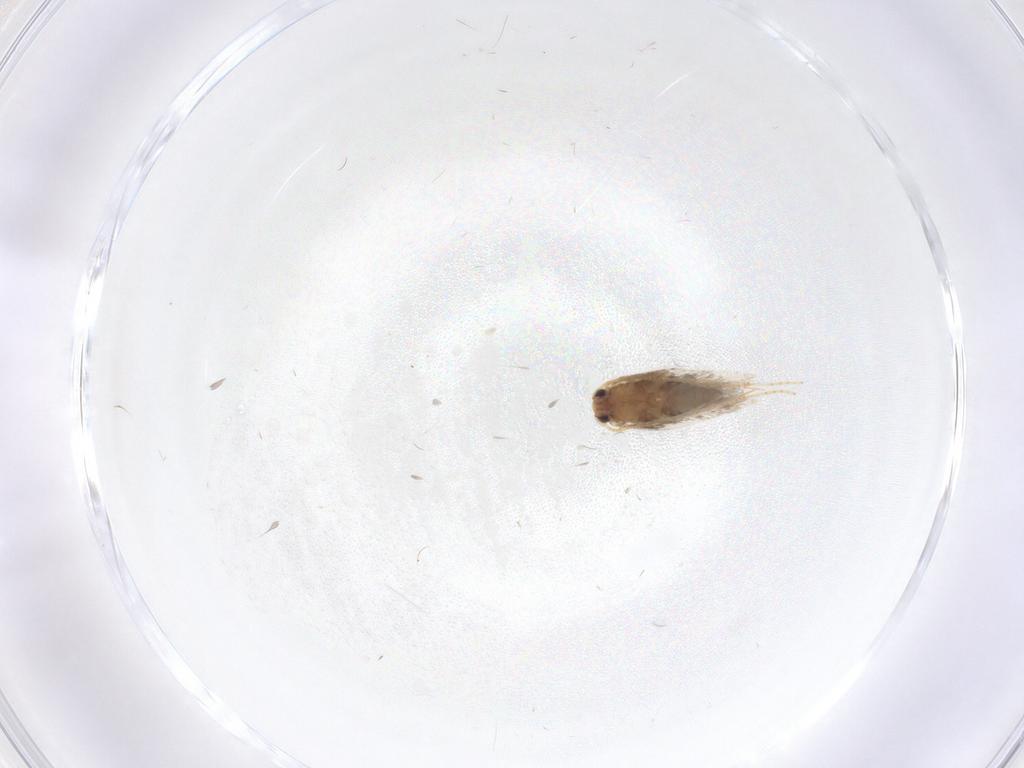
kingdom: Animalia
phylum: Arthropoda
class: Insecta
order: Lepidoptera
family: Copromorphidae
